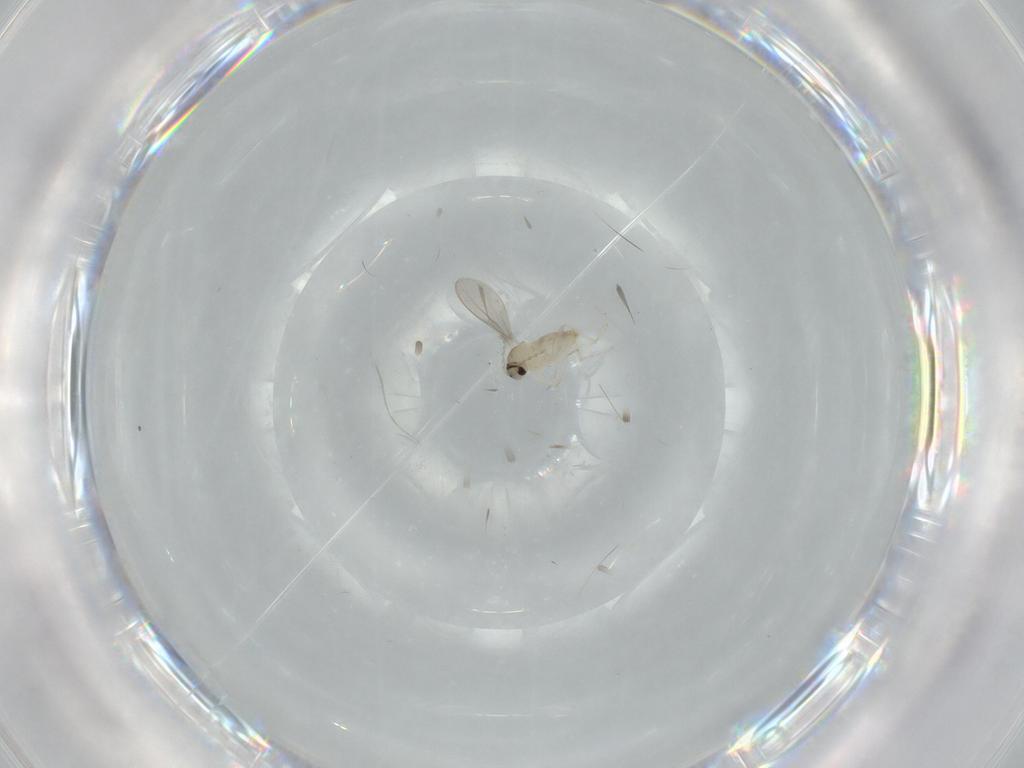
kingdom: Animalia
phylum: Arthropoda
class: Insecta
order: Diptera
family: Cecidomyiidae
